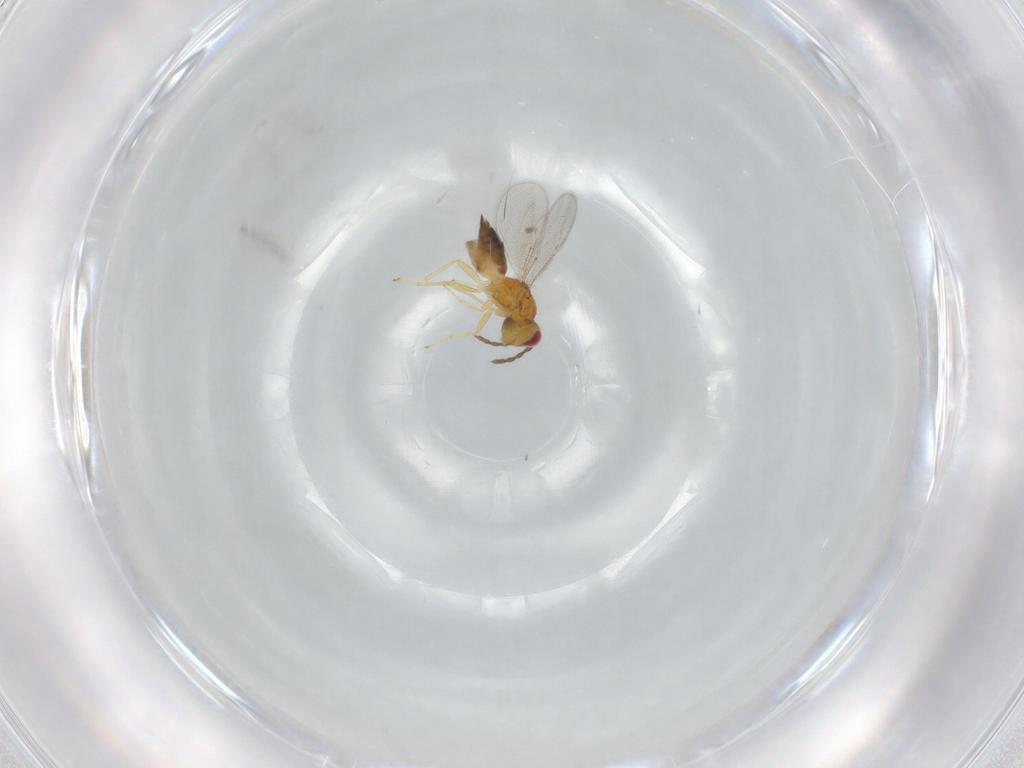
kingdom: Animalia
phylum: Arthropoda
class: Insecta
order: Hymenoptera
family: Eulophidae
